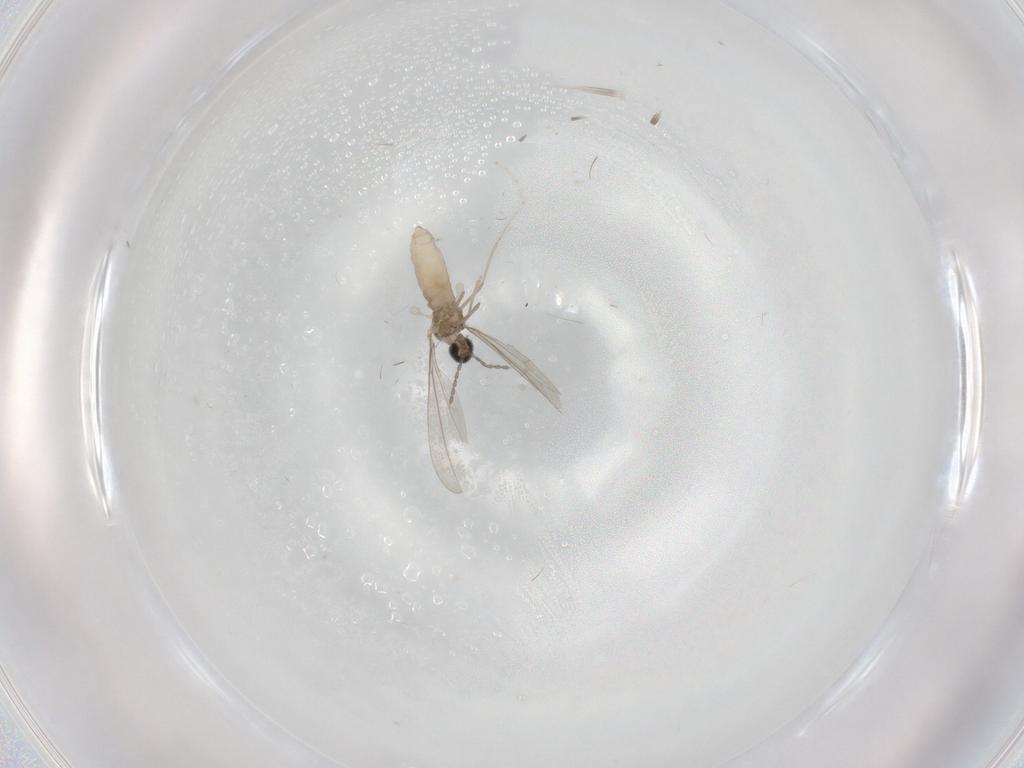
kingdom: Animalia
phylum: Arthropoda
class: Insecta
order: Diptera
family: Cecidomyiidae
